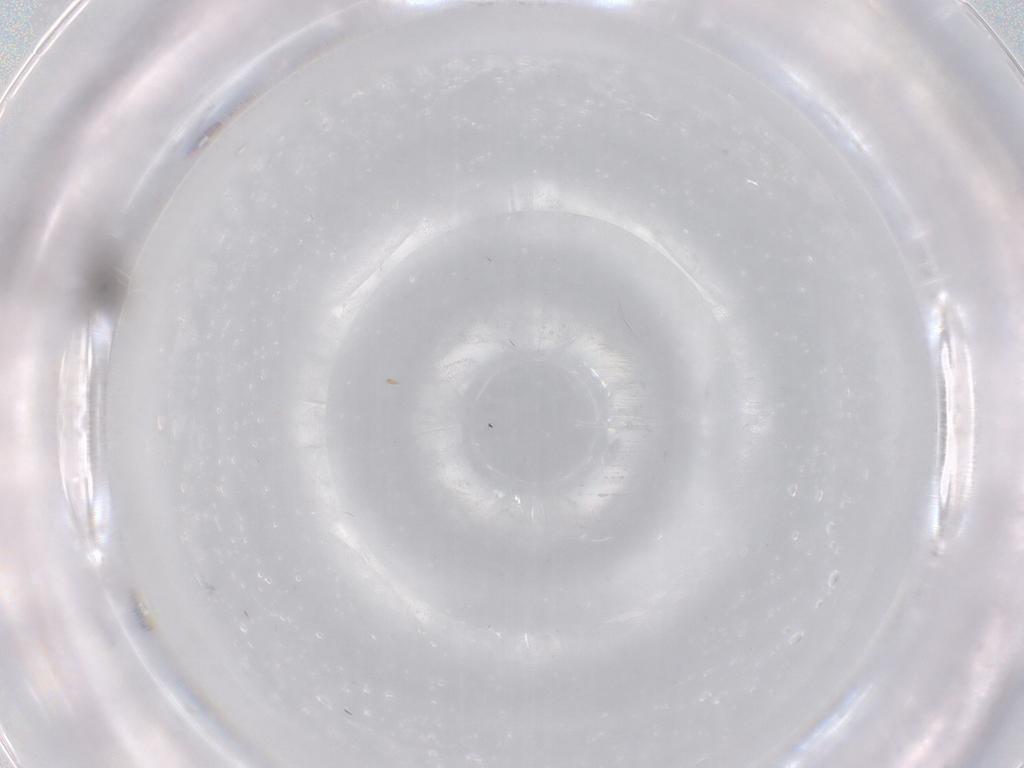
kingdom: Animalia
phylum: Arthropoda
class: Insecta
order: Diptera
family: Cecidomyiidae
